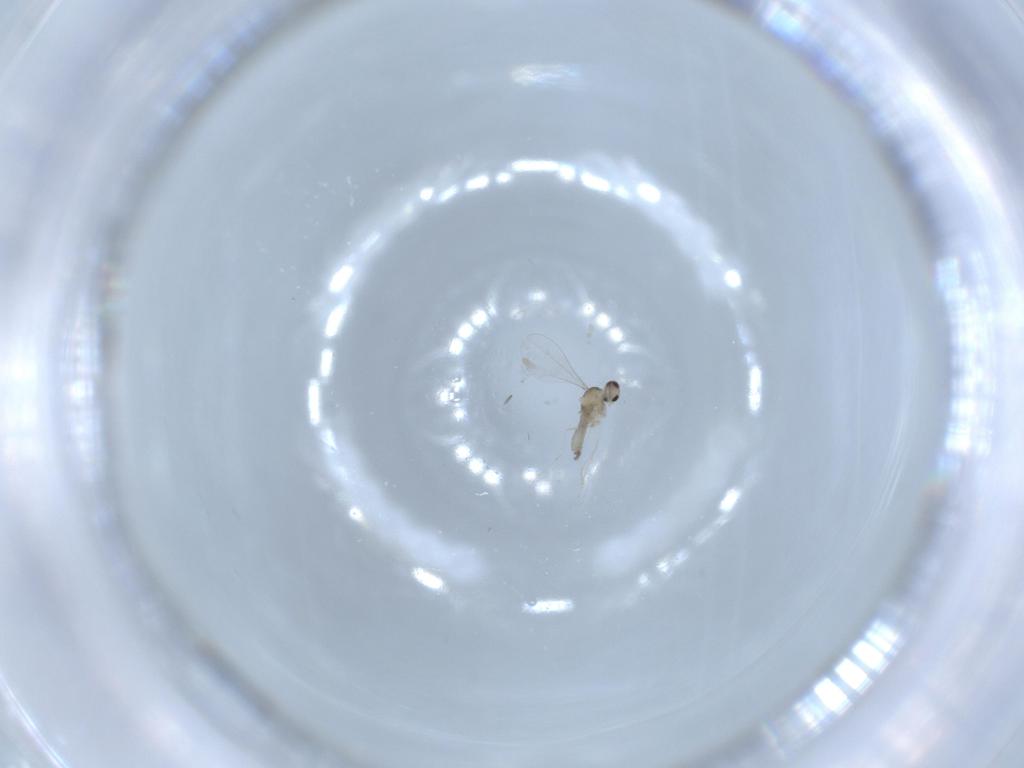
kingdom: Animalia
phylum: Arthropoda
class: Insecta
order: Diptera
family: Cecidomyiidae
